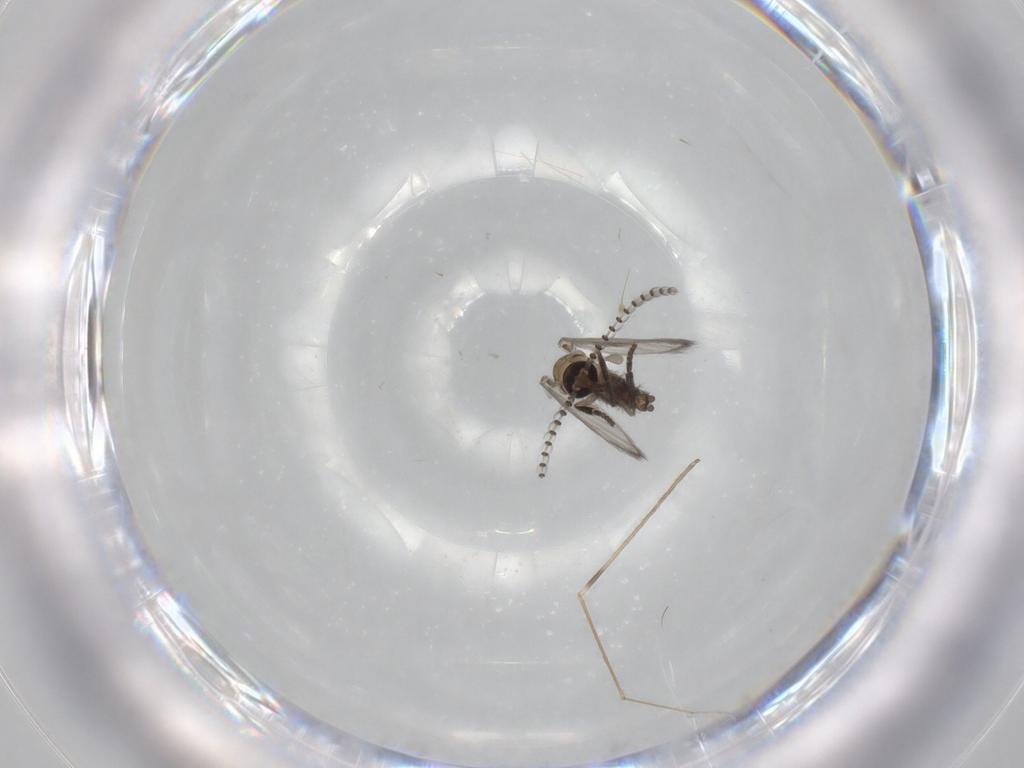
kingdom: Animalia
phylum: Arthropoda
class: Insecta
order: Diptera
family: Psychodidae
